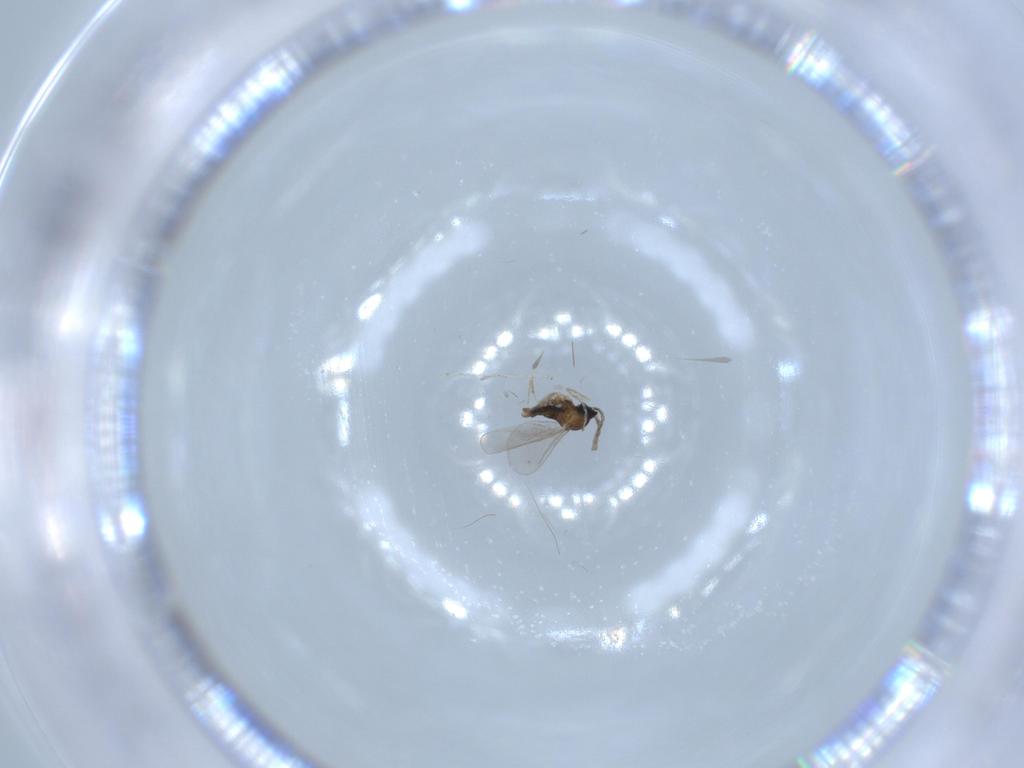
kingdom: Animalia
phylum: Arthropoda
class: Insecta
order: Diptera
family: Cecidomyiidae
